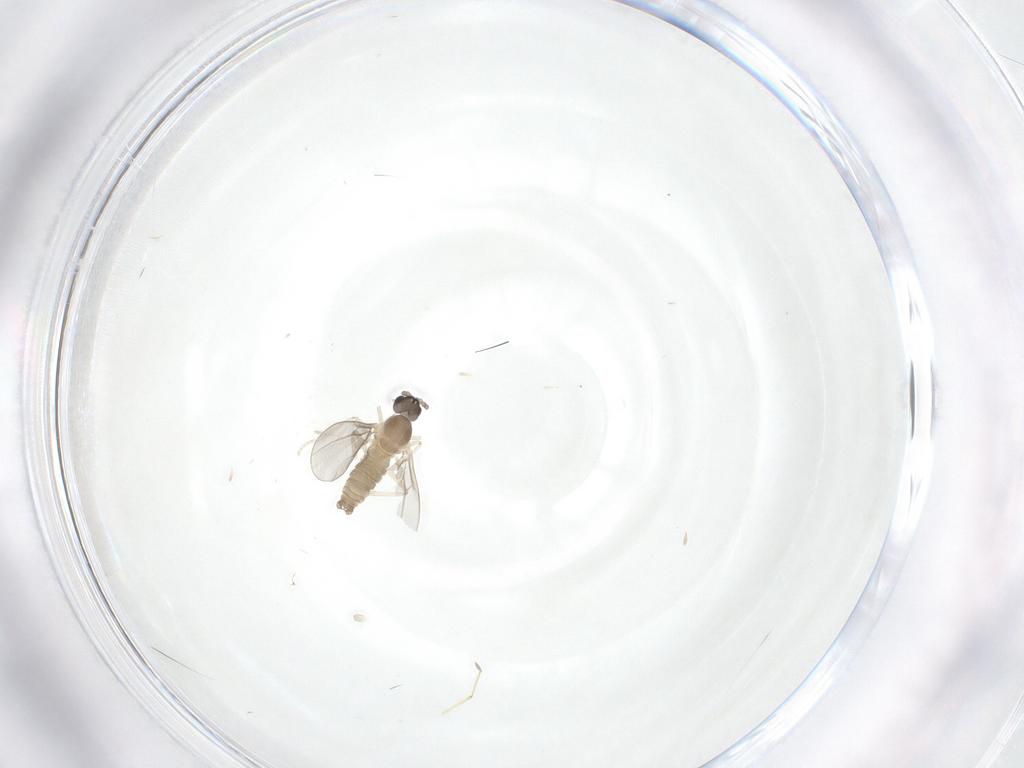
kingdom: Animalia
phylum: Arthropoda
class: Insecta
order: Diptera
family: Cecidomyiidae
